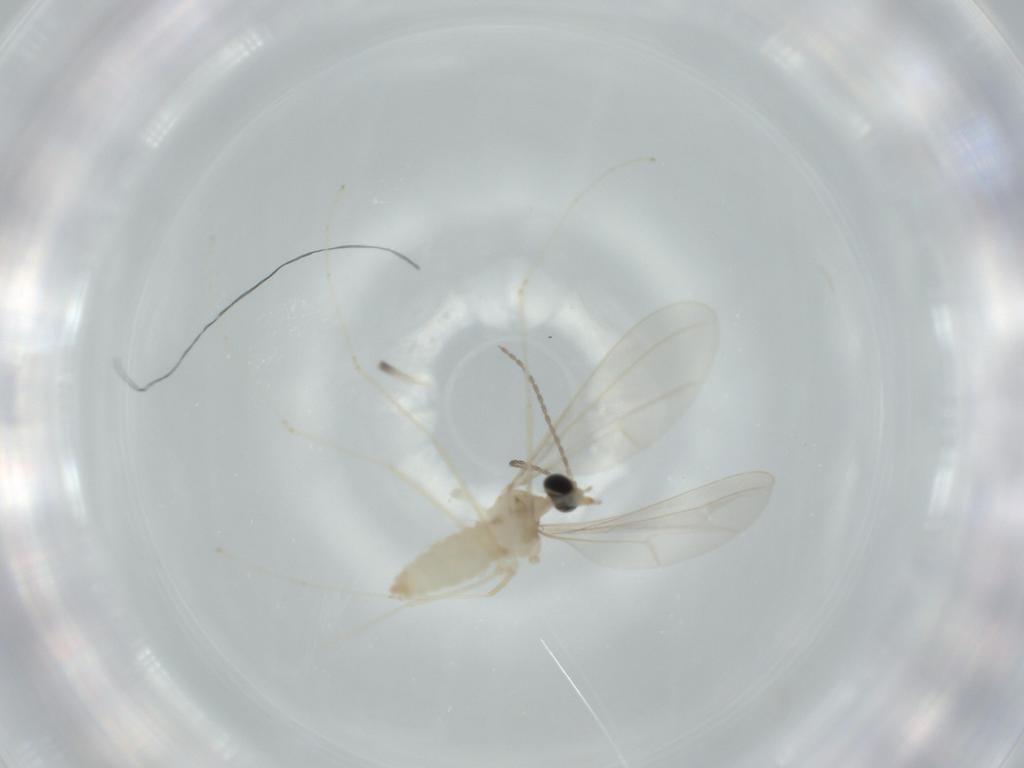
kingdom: Animalia
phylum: Arthropoda
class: Insecta
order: Diptera
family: Cecidomyiidae
